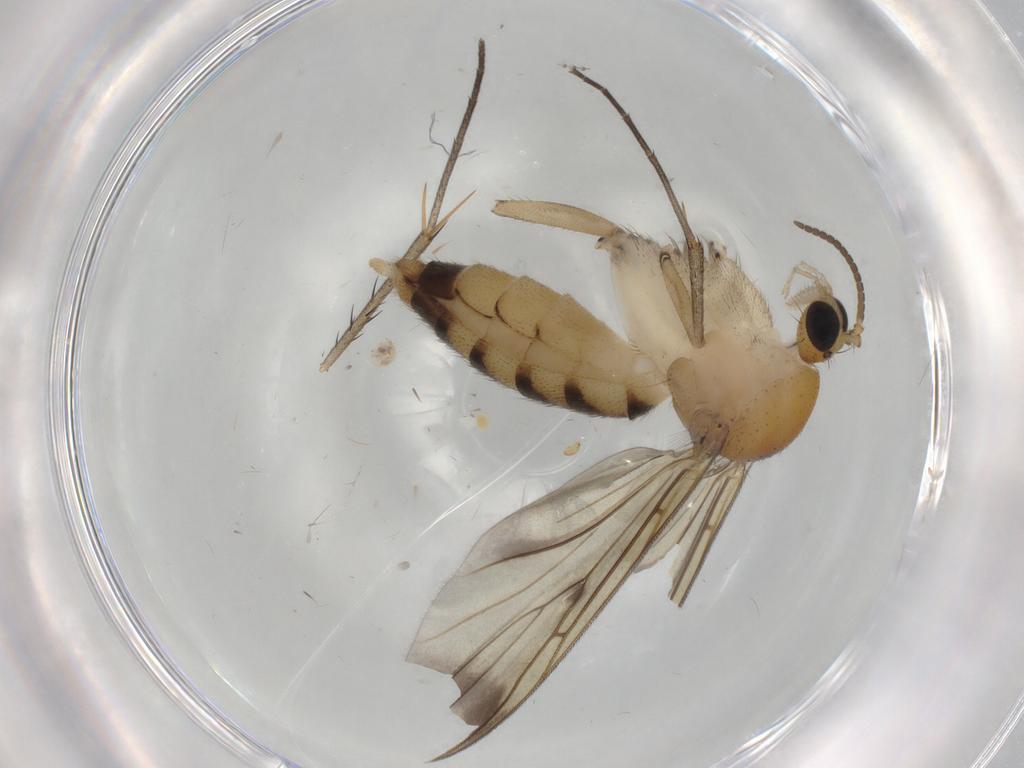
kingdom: Animalia
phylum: Arthropoda
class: Insecta
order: Diptera
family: Mycetophilidae
